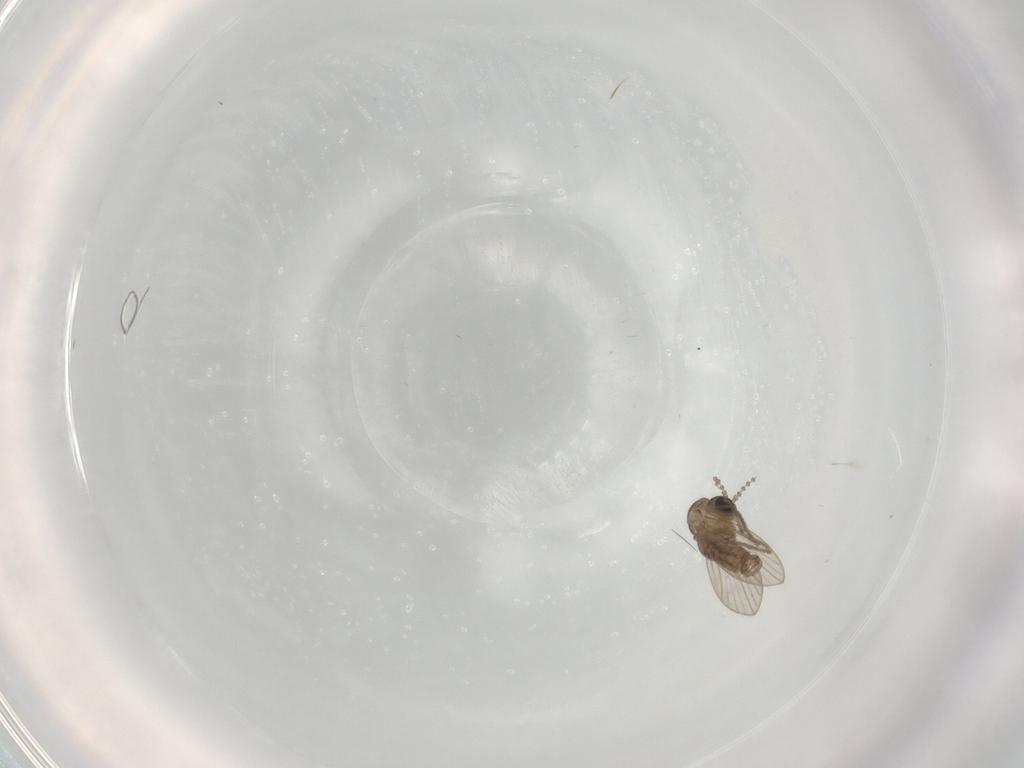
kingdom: Animalia
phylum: Arthropoda
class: Insecta
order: Diptera
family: Psychodidae
